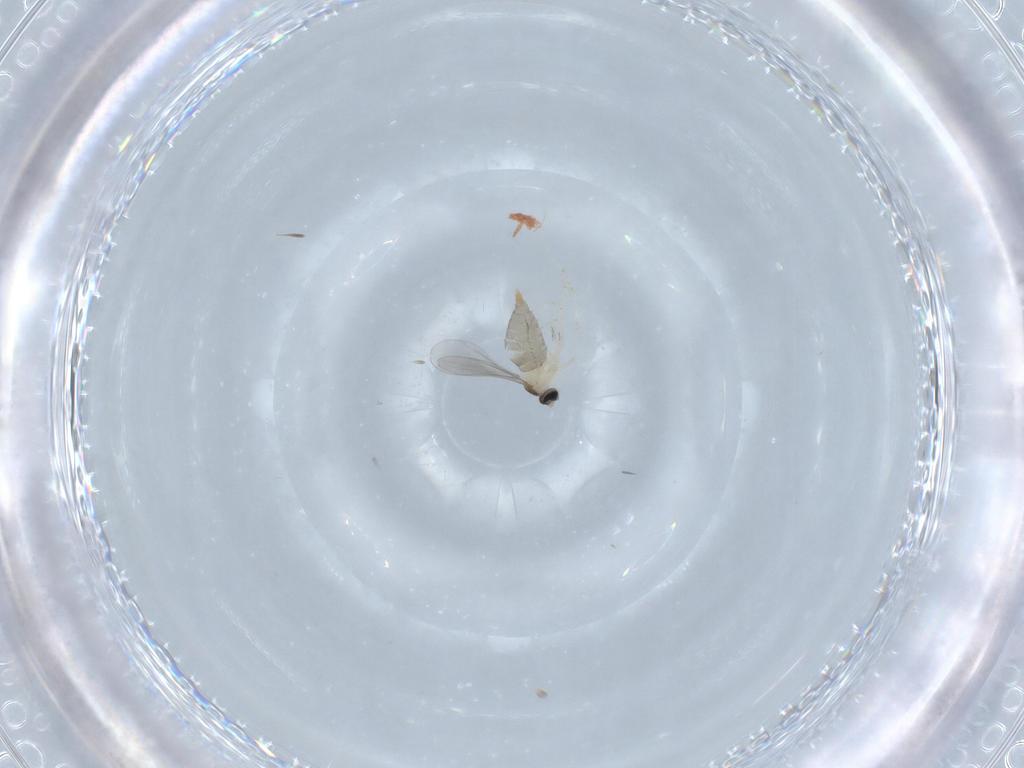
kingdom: Animalia
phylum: Arthropoda
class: Insecta
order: Diptera
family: Cecidomyiidae
